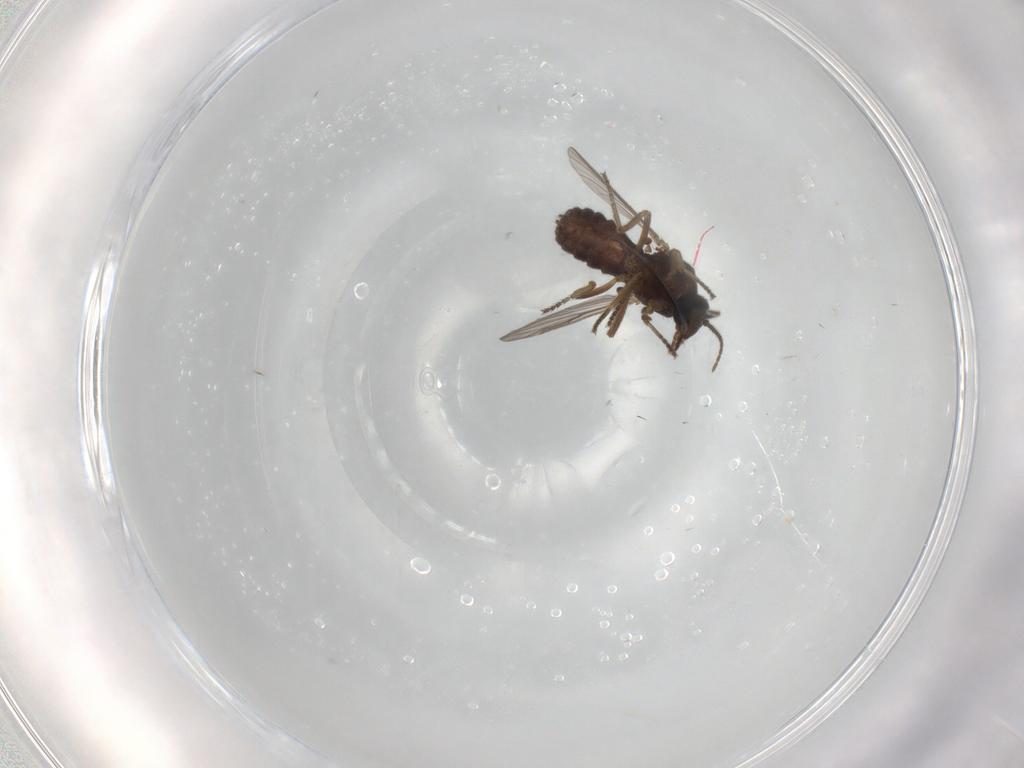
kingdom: Animalia
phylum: Arthropoda
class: Insecta
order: Diptera
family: Ceratopogonidae
